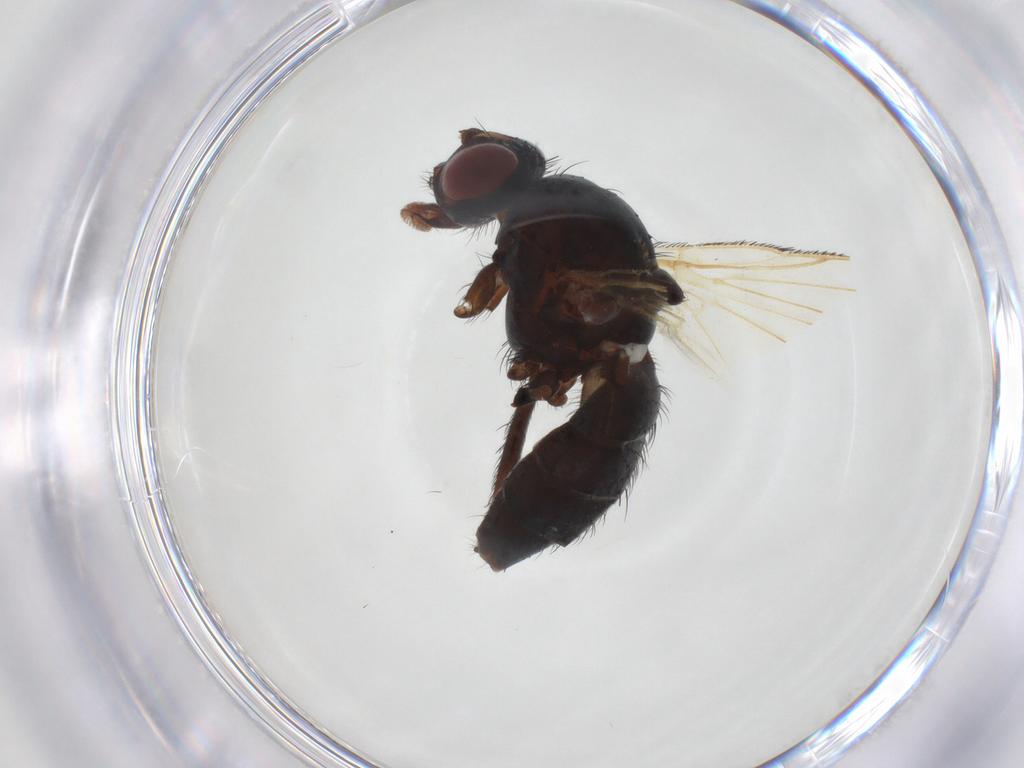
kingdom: Animalia
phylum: Arthropoda
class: Insecta
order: Diptera
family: Anthomyiidae
